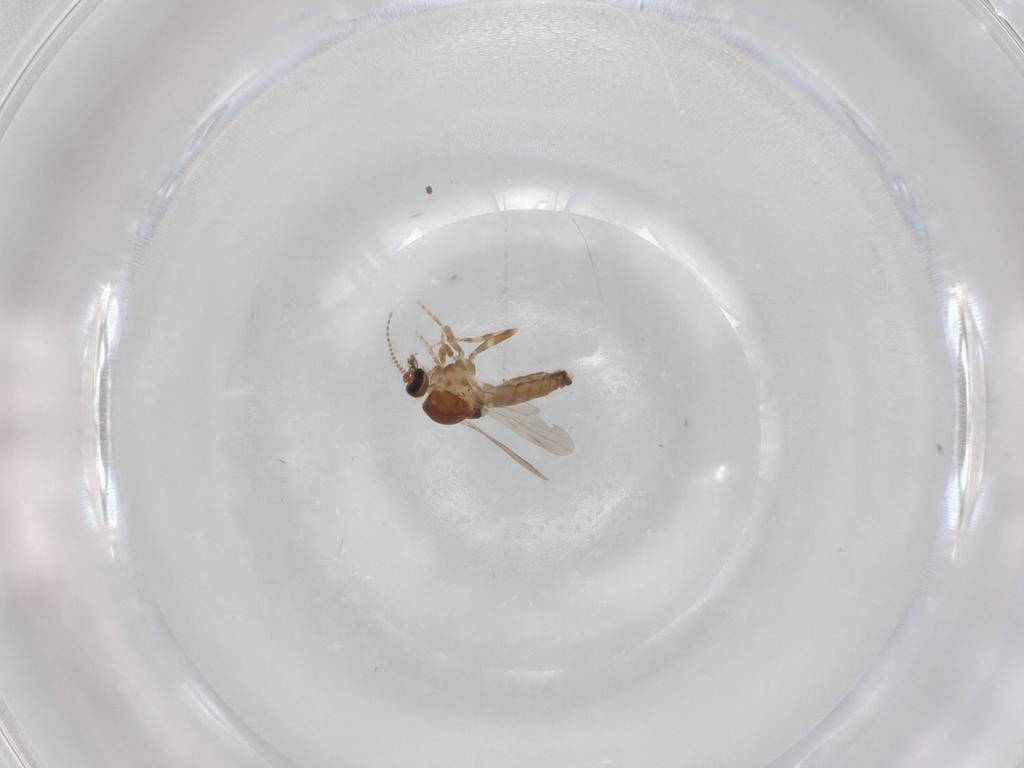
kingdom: Animalia
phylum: Arthropoda
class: Insecta
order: Diptera
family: Ceratopogonidae
